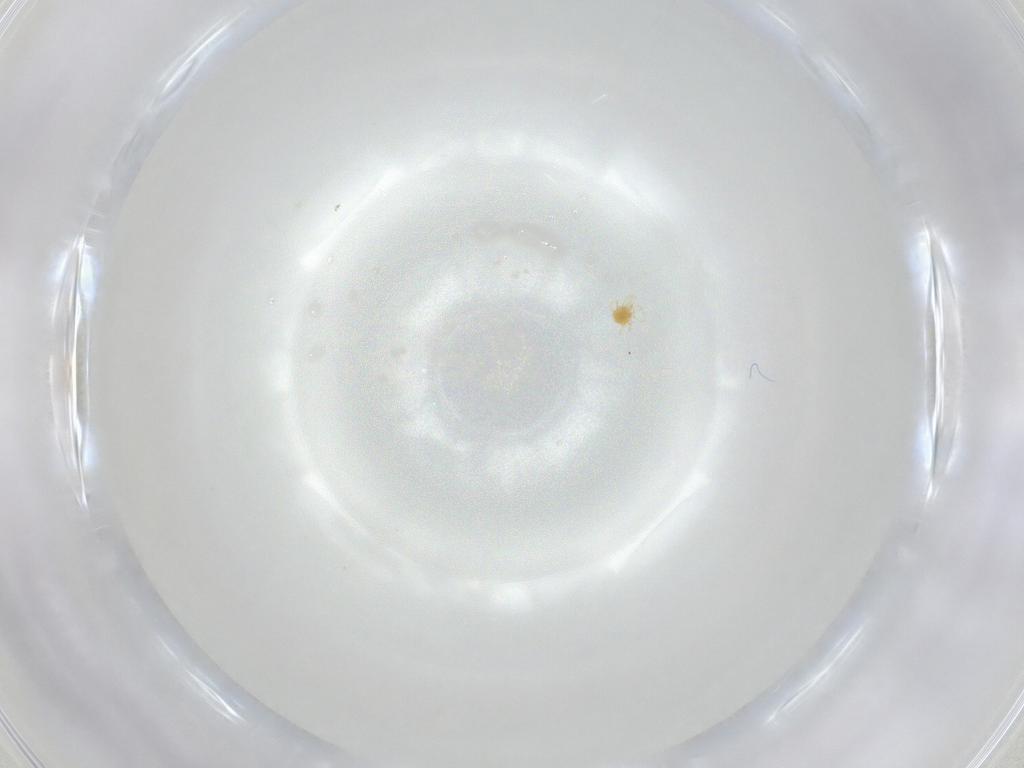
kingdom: Animalia
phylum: Arthropoda
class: Arachnida
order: Trombidiformes
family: Tetranychidae
